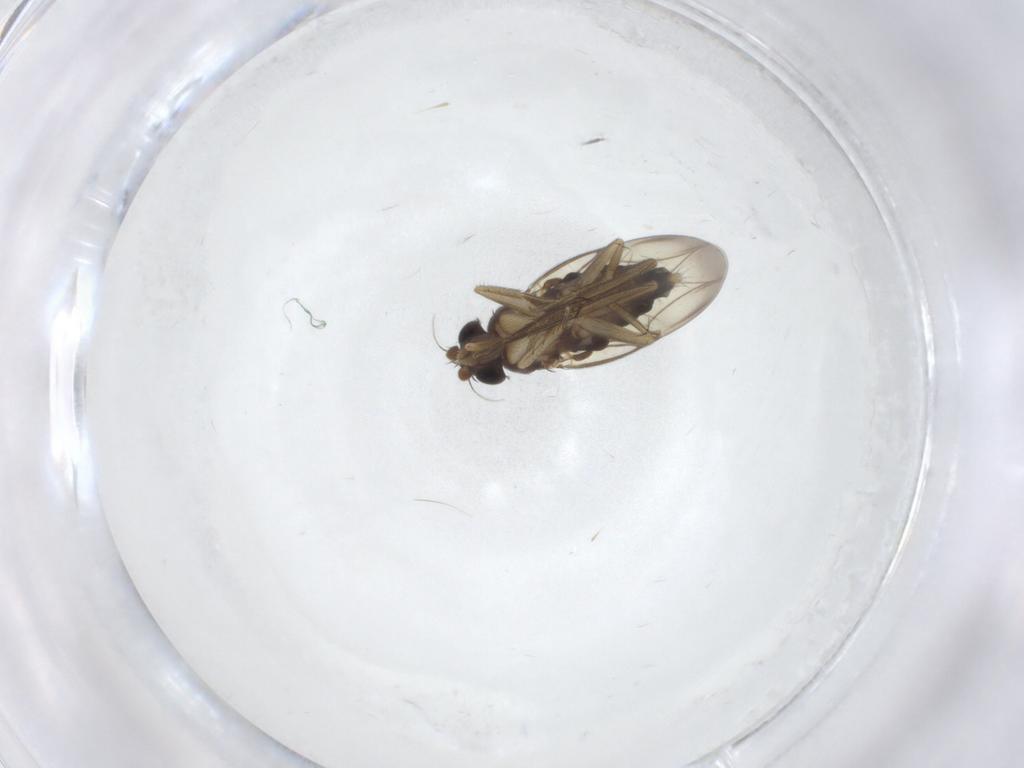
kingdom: Animalia
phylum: Arthropoda
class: Insecta
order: Diptera
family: Phoridae
